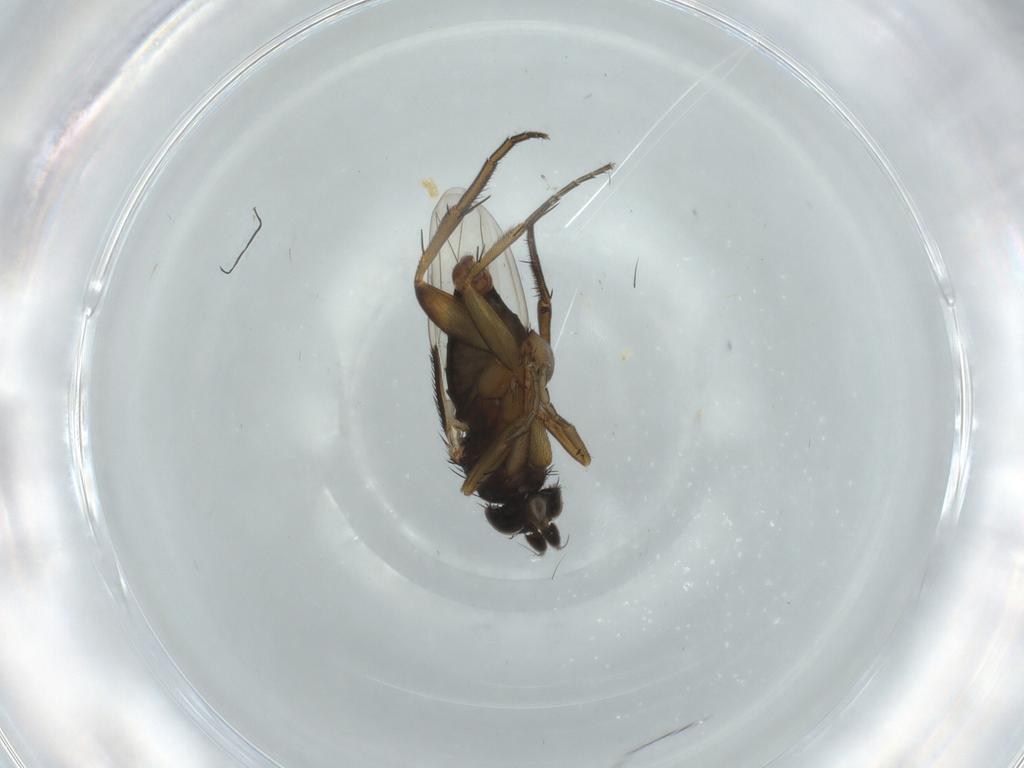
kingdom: Animalia
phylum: Arthropoda
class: Insecta
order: Diptera
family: Phoridae
